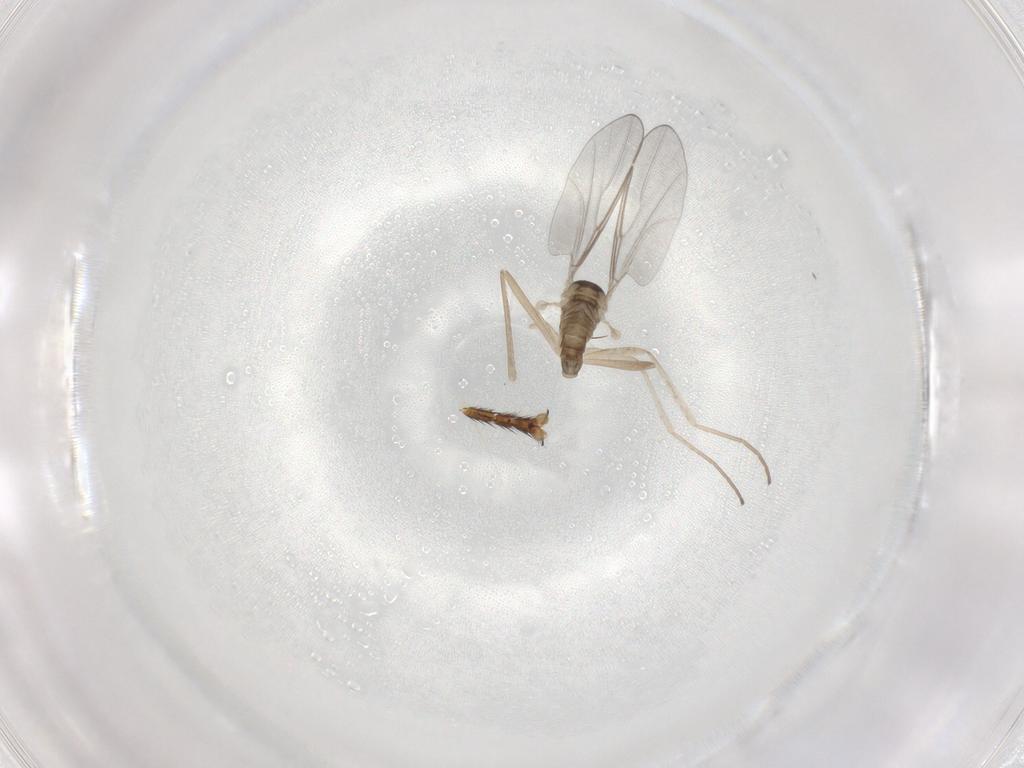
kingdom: Animalia
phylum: Arthropoda
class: Insecta
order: Diptera
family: Cecidomyiidae
